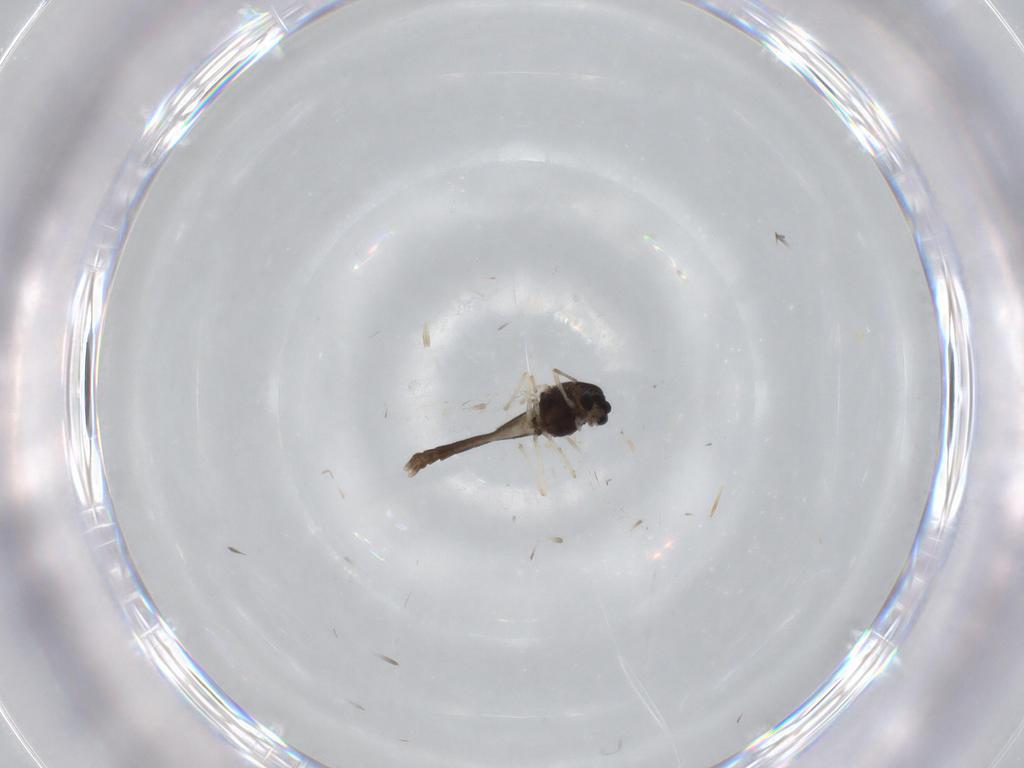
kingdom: Animalia
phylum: Arthropoda
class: Insecta
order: Diptera
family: Chironomidae
